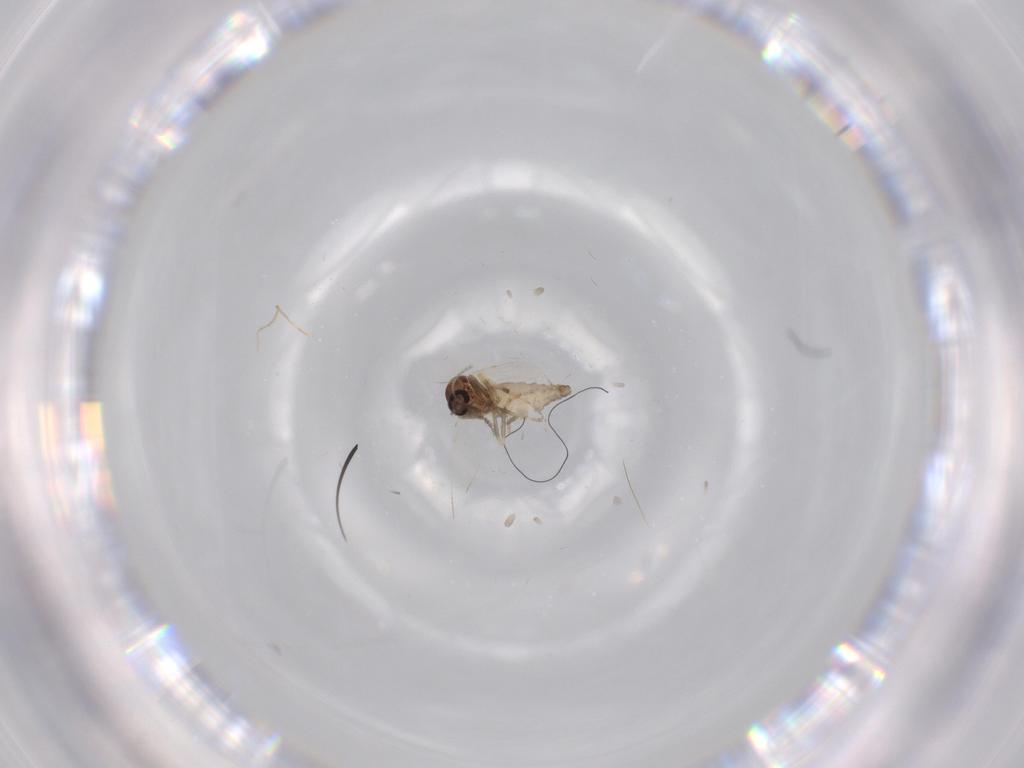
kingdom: Animalia
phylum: Arthropoda
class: Insecta
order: Diptera
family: Ceratopogonidae
